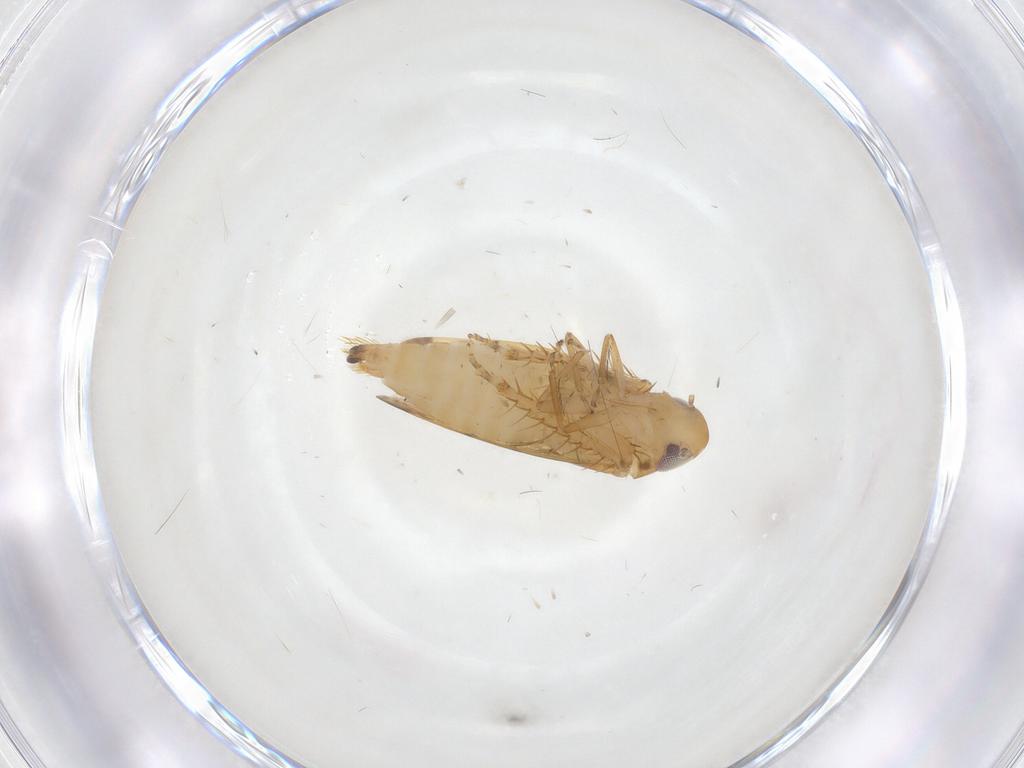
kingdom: Animalia
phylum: Arthropoda
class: Insecta
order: Hemiptera
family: Cicadellidae
